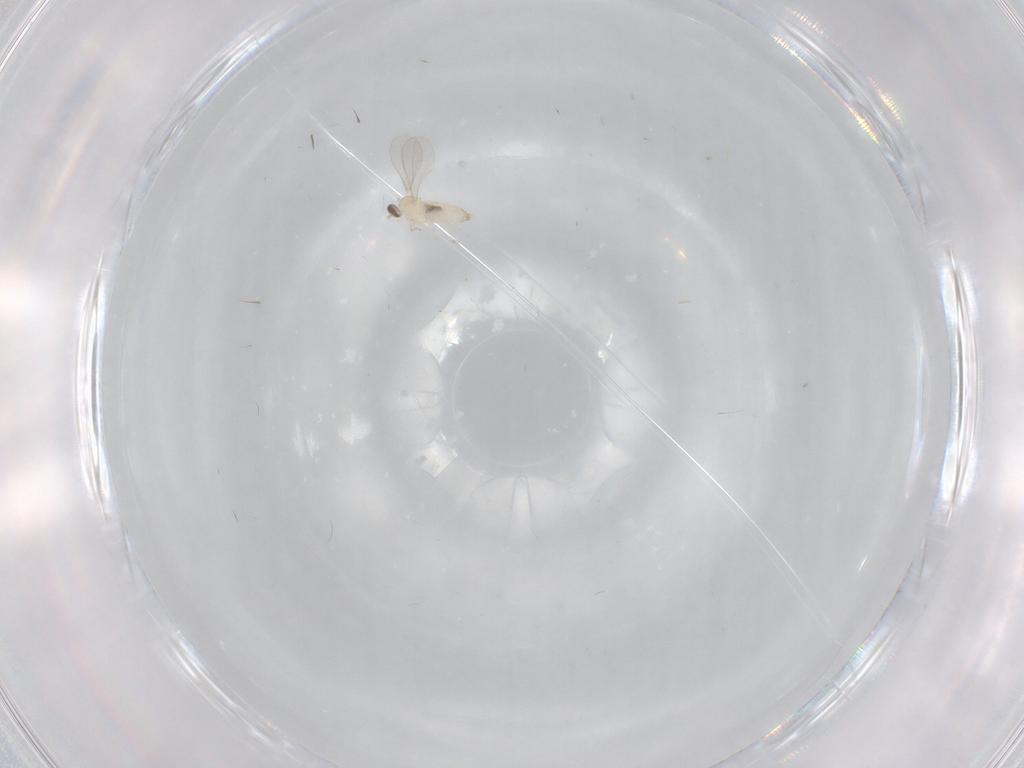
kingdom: Animalia
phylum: Arthropoda
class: Insecta
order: Diptera
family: Cecidomyiidae
